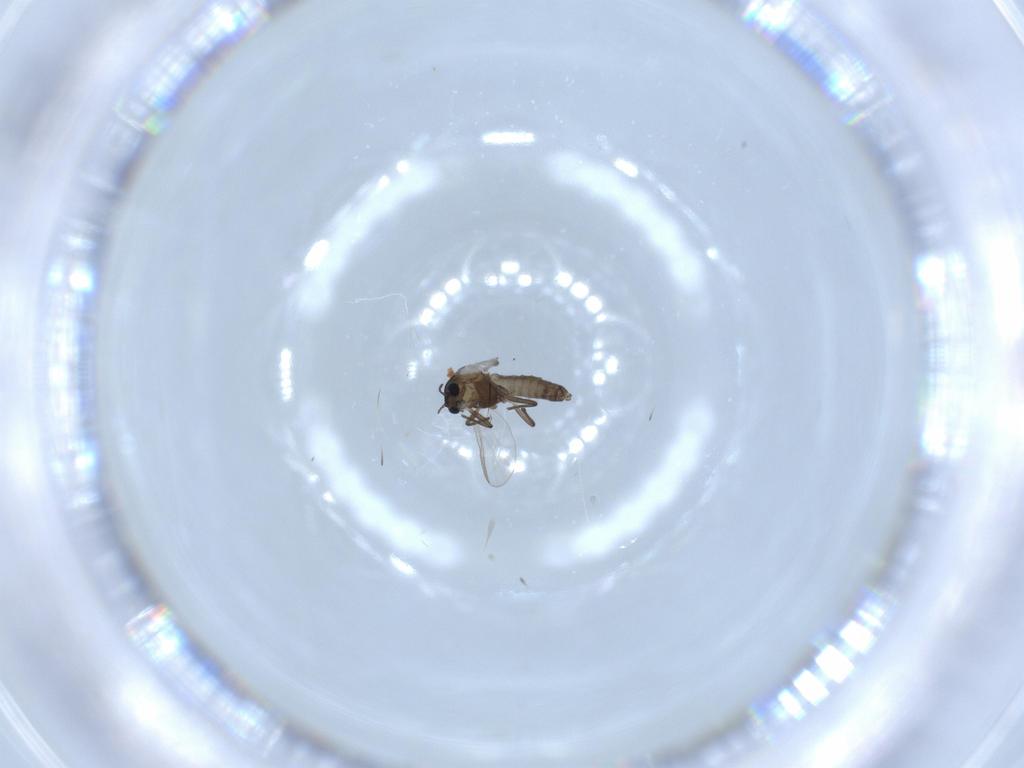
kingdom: Animalia
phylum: Arthropoda
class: Insecta
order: Diptera
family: Chironomidae
